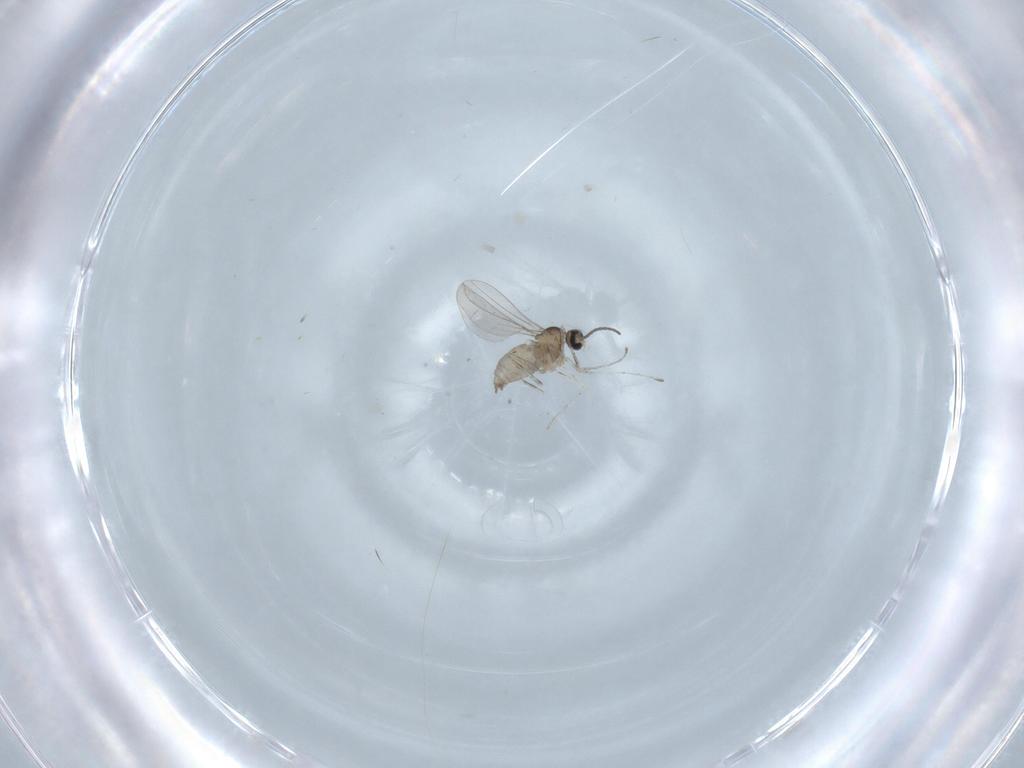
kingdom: Animalia
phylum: Arthropoda
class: Insecta
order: Diptera
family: Cecidomyiidae
